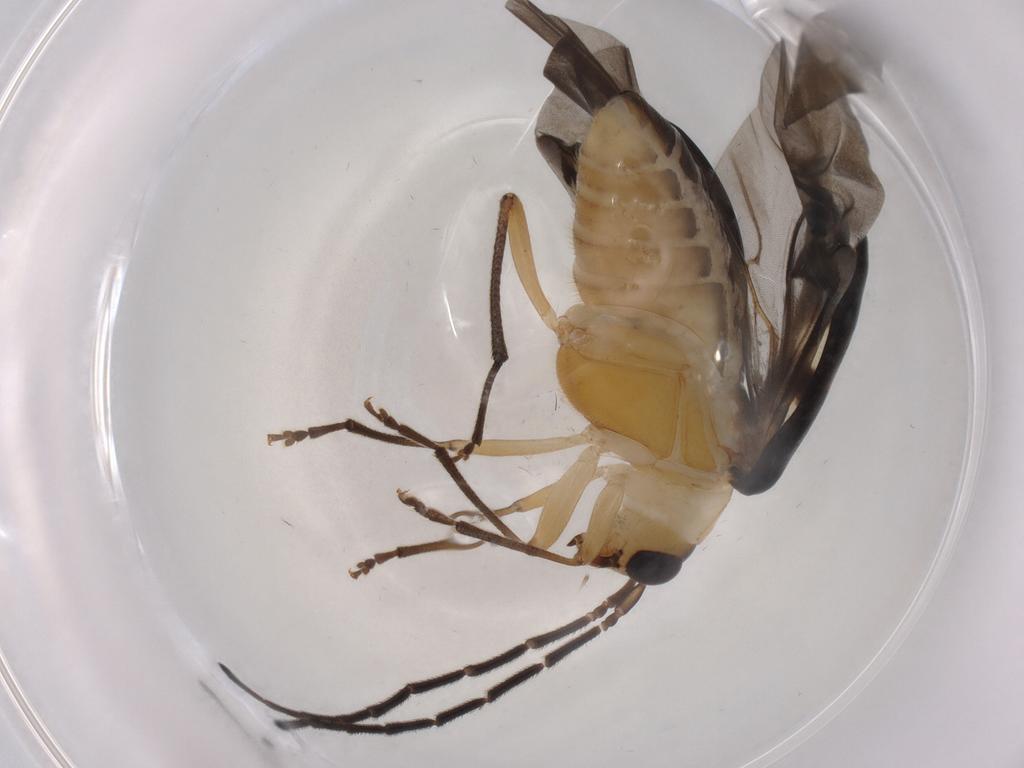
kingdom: Animalia
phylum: Arthropoda
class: Insecta
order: Coleoptera
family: Chrysomelidae
